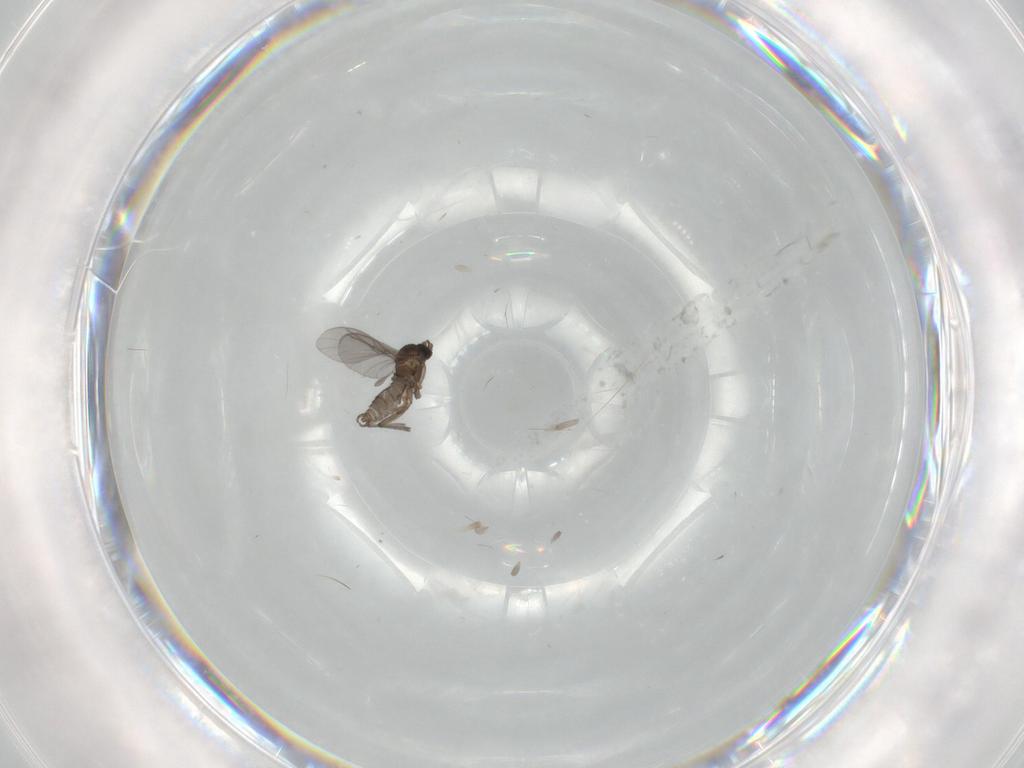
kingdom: Animalia
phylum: Arthropoda
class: Insecta
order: Diptera
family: Sciaridae
